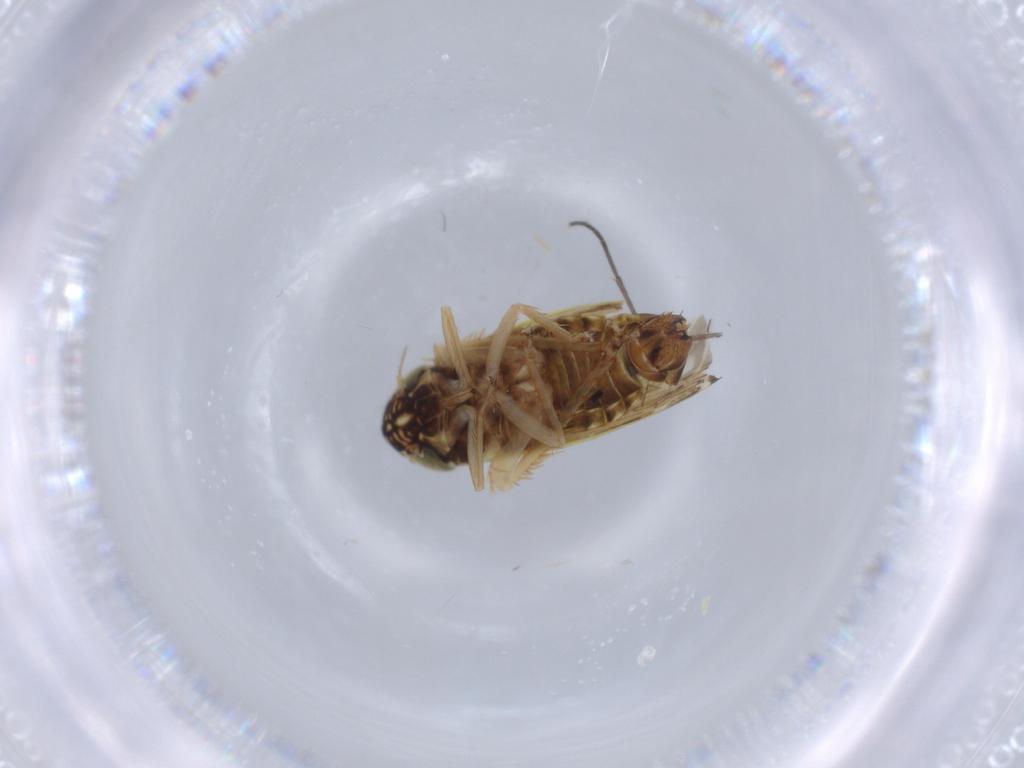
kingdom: Animalia
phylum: Arthropoda
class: Insecta
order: Hemiptera
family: Cicadellidae
